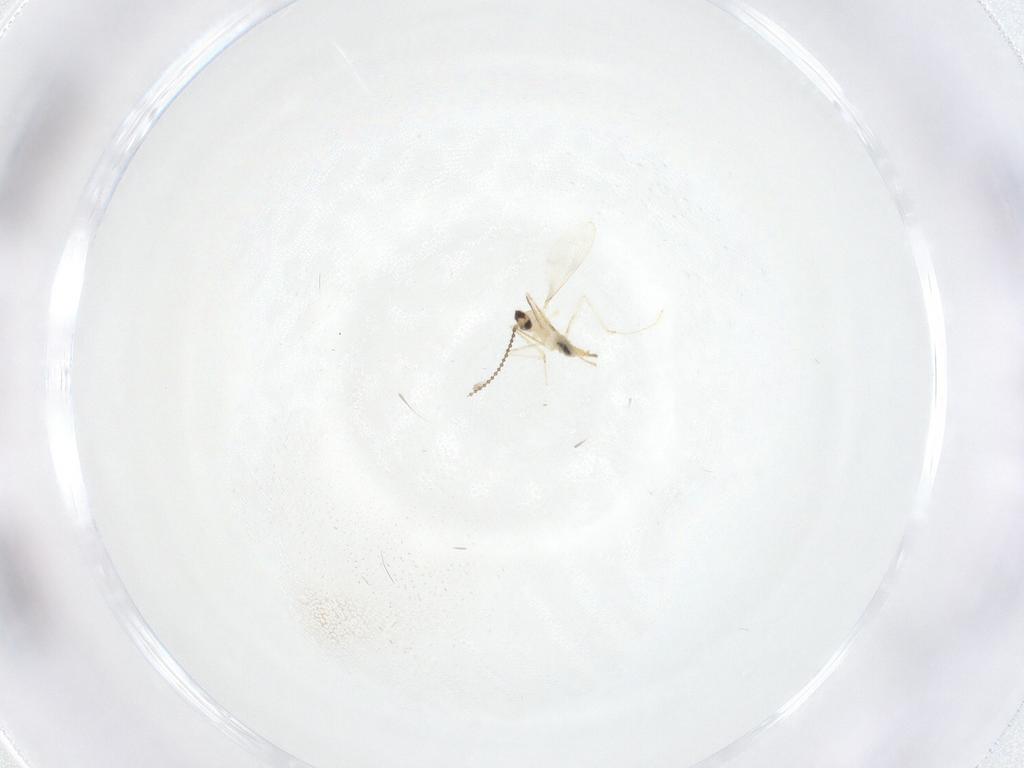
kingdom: Animalia
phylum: Arthropoda
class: Insecta
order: Diptera
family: Cecidomyiidae
